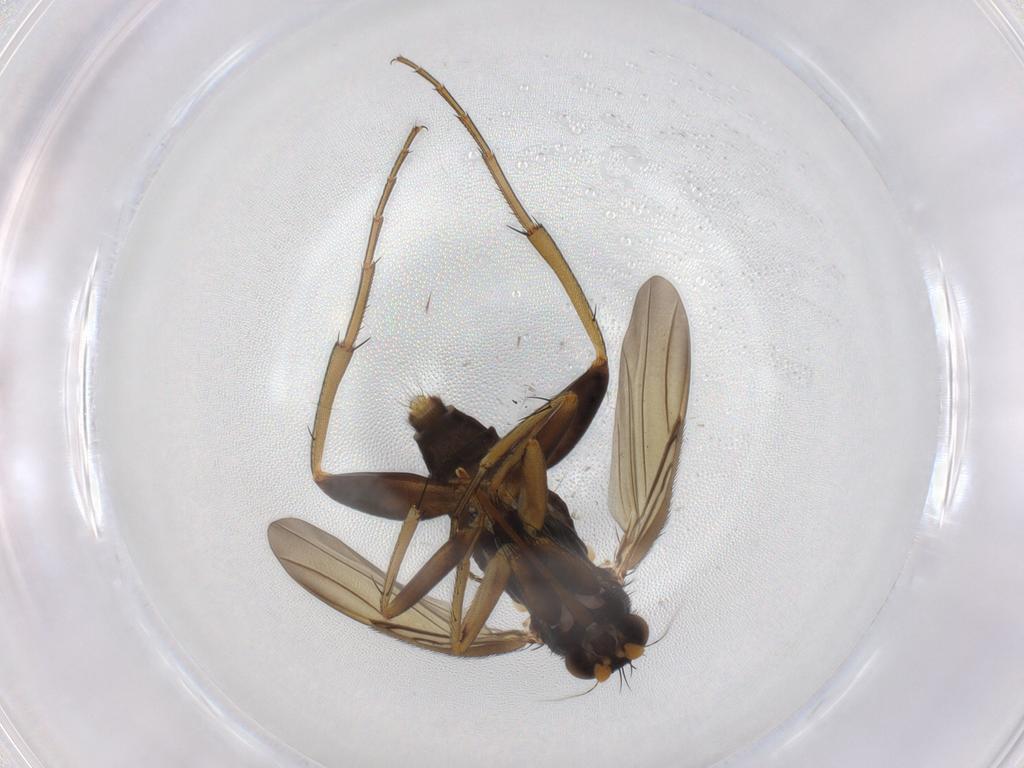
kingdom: Animalia
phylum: Arthropoda
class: Insecta
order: Diptera
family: Phoridae
